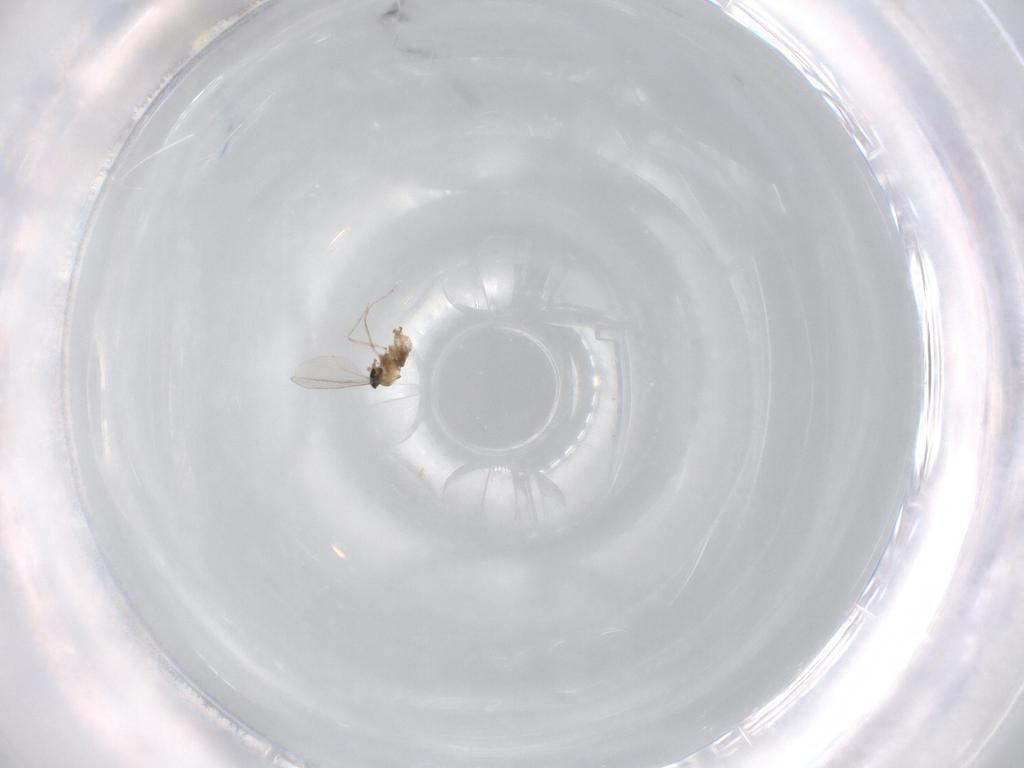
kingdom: Animalia
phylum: Arthropoda
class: Insecta
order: Diptera
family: Chironomidae
